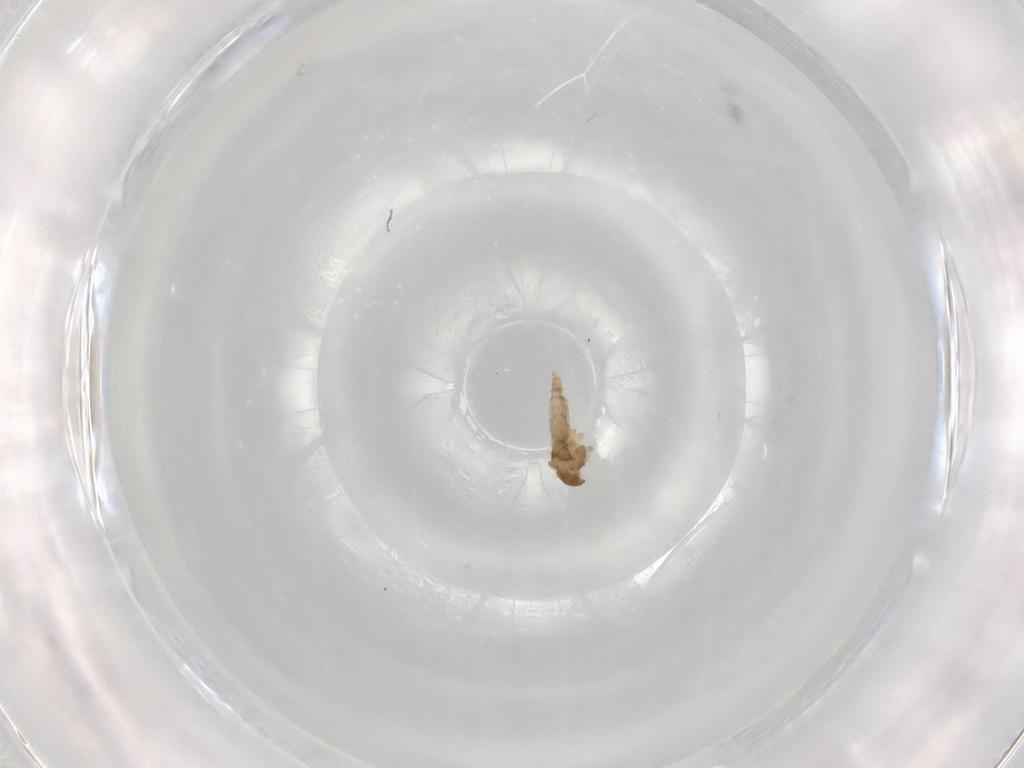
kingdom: Animalia
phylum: Arthropoda
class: Insecta
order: Diptera
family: Cecidomyiidae
